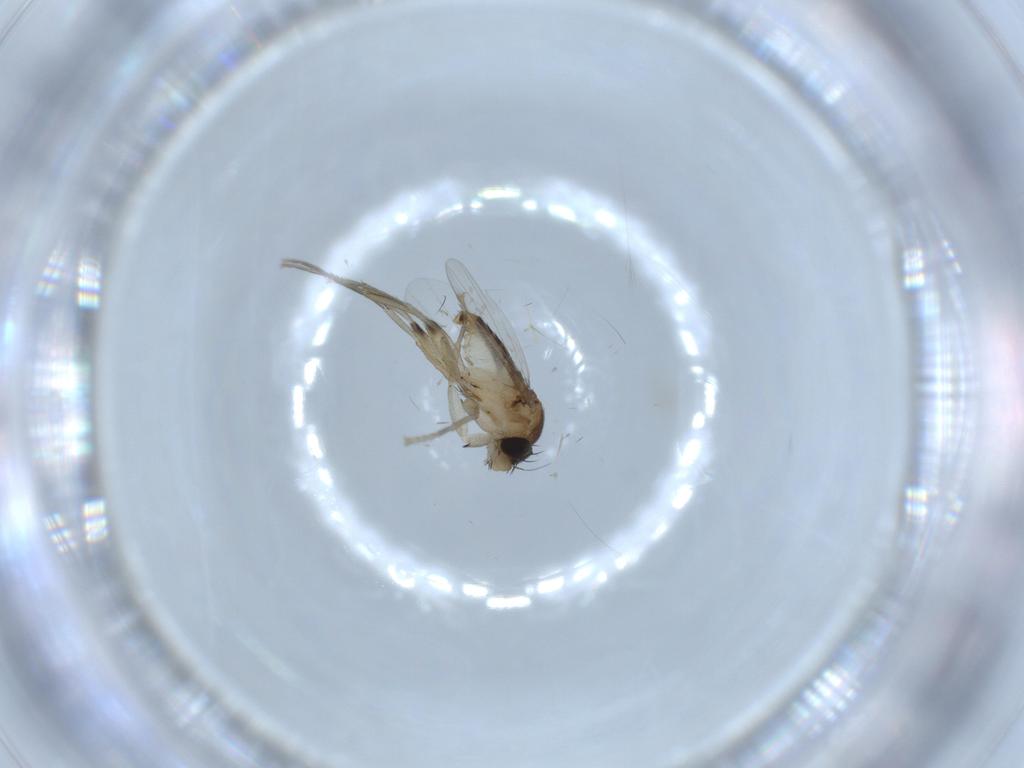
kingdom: Animalia
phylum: Arthropoda
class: Insecta
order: Diptera
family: Phoridae
